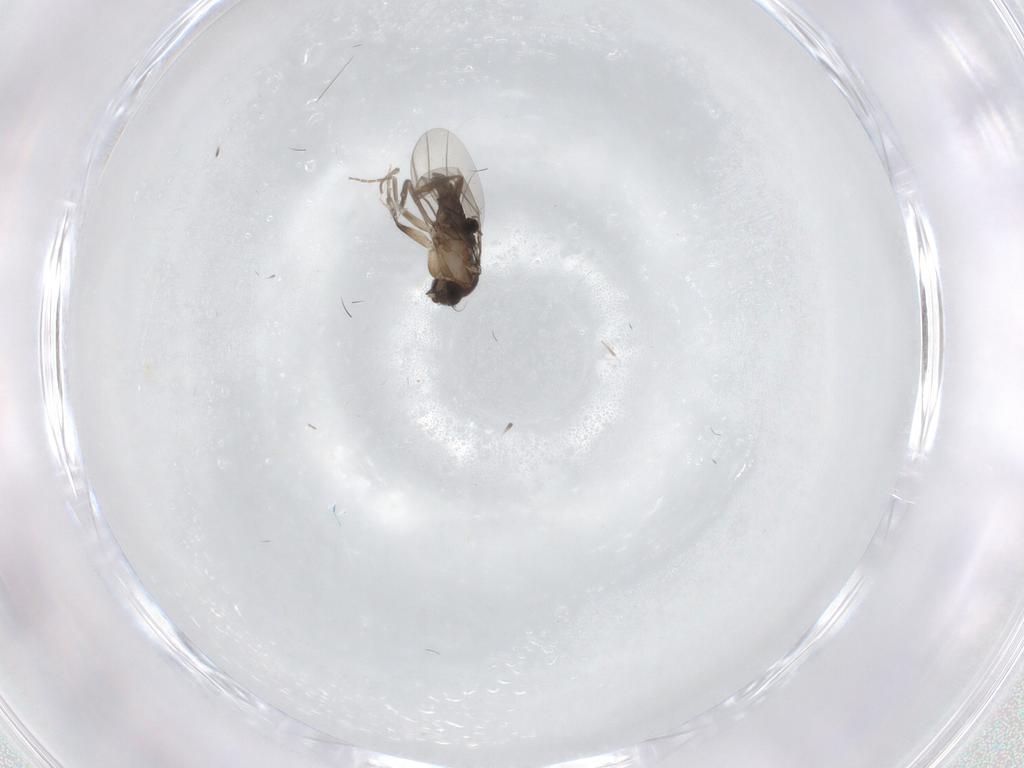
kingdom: Animalia
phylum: Arthropoda
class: Insecta
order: Diptera
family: Phoridae
